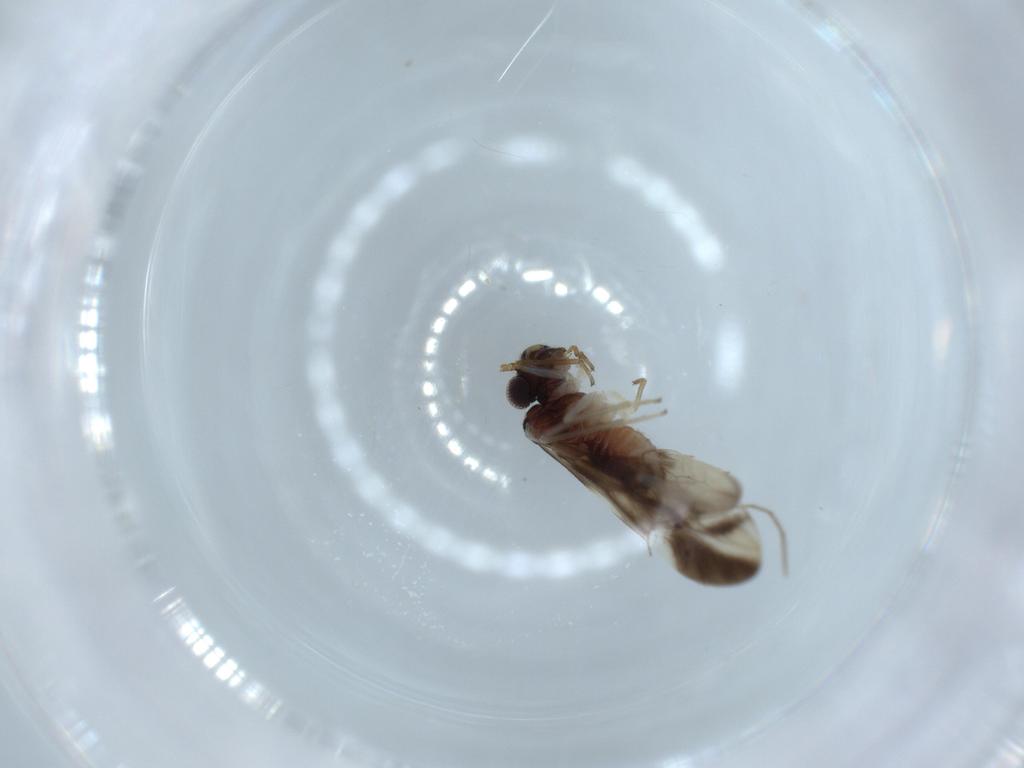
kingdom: Animalia
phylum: Arthropoda
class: Insecta
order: Psocodea
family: Caeciliusidae
